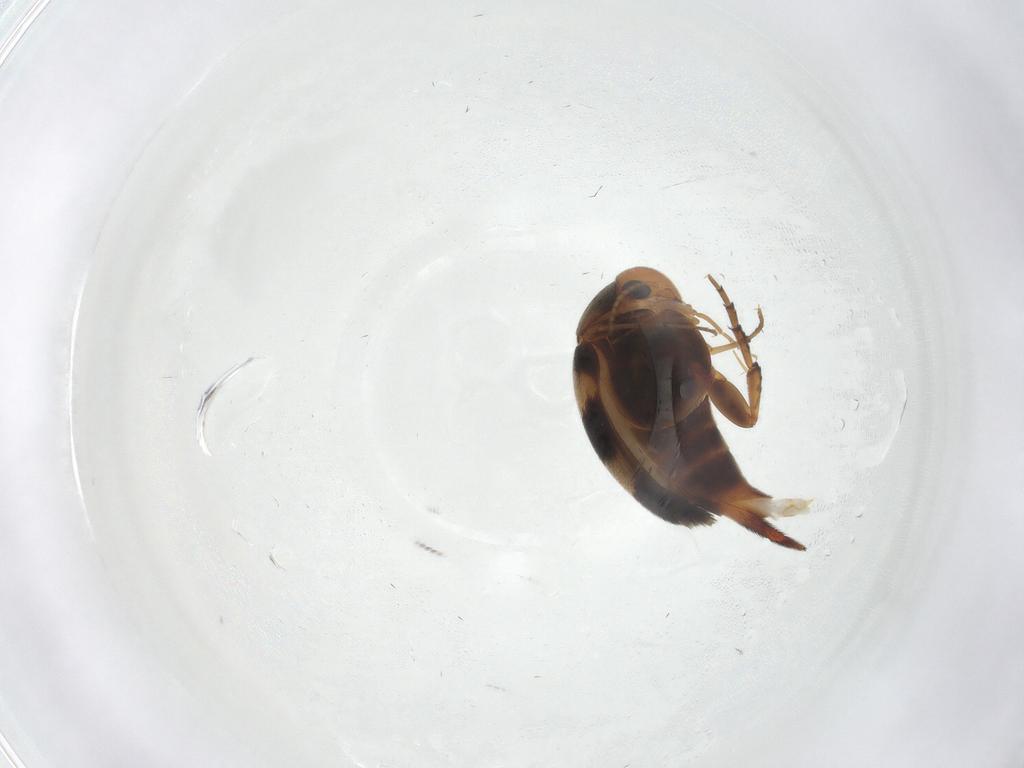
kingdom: Animalia
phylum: Arthropoda
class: Insecta
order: Coleoptera
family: Mordellidae
